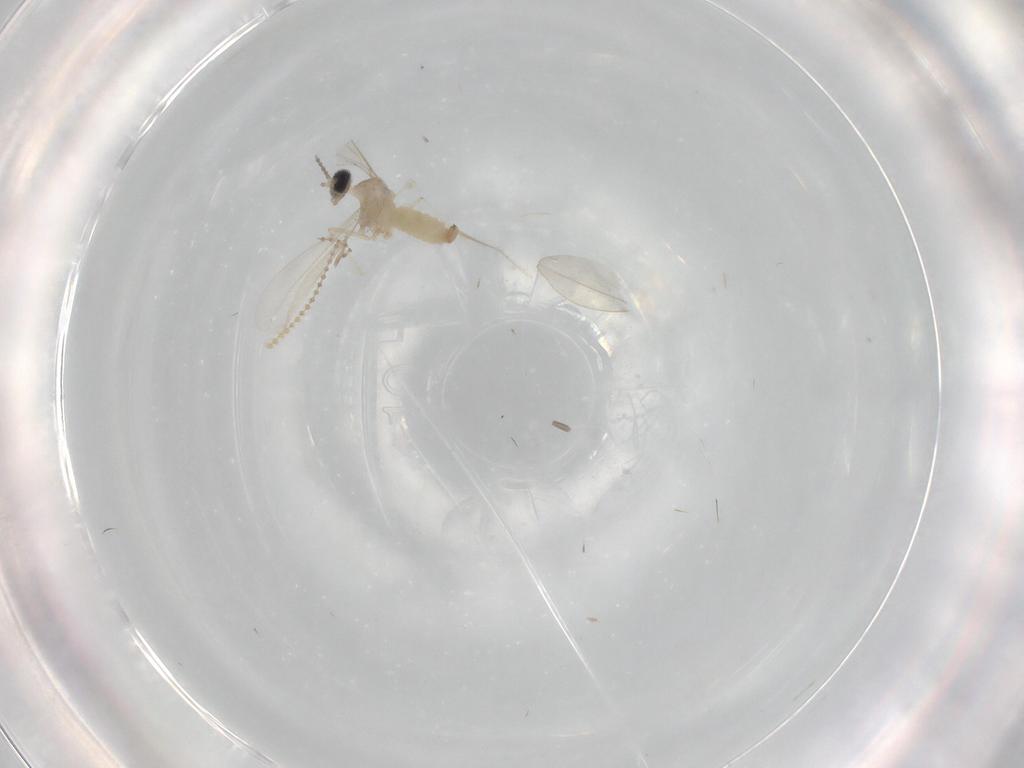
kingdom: Animalia
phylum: Arthropoda
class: Insecta
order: Diptera
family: Cecidomyiidae
